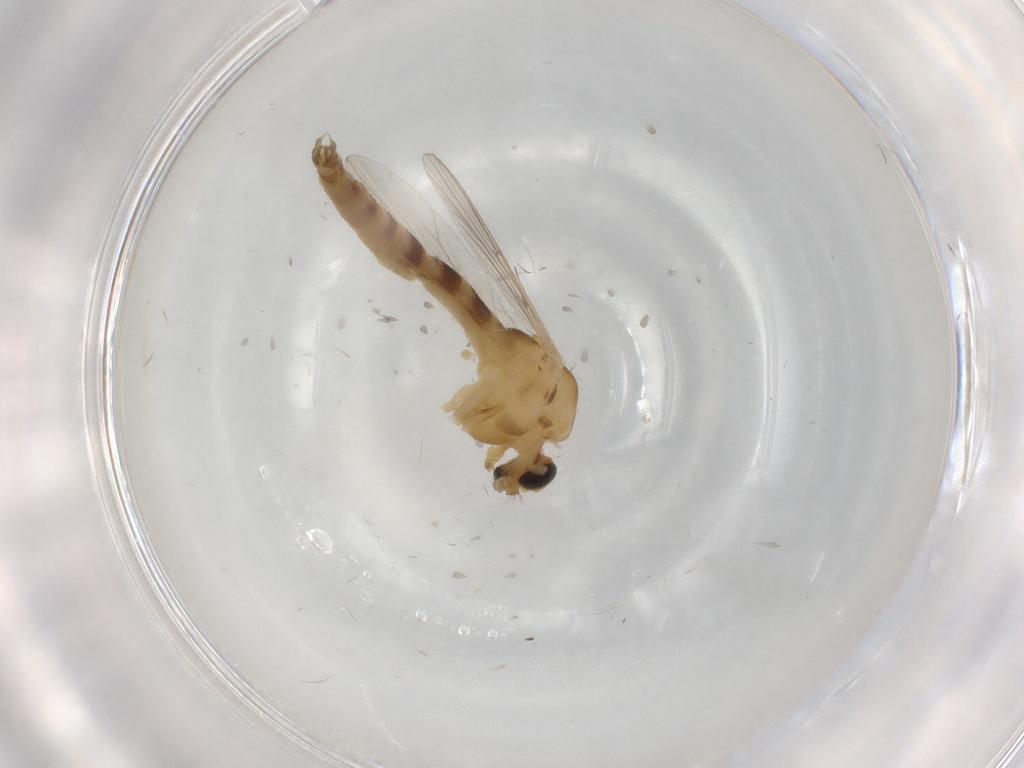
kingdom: Animalia
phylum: Arthropoda
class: Insecta
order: Diptera
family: Chironomidae
